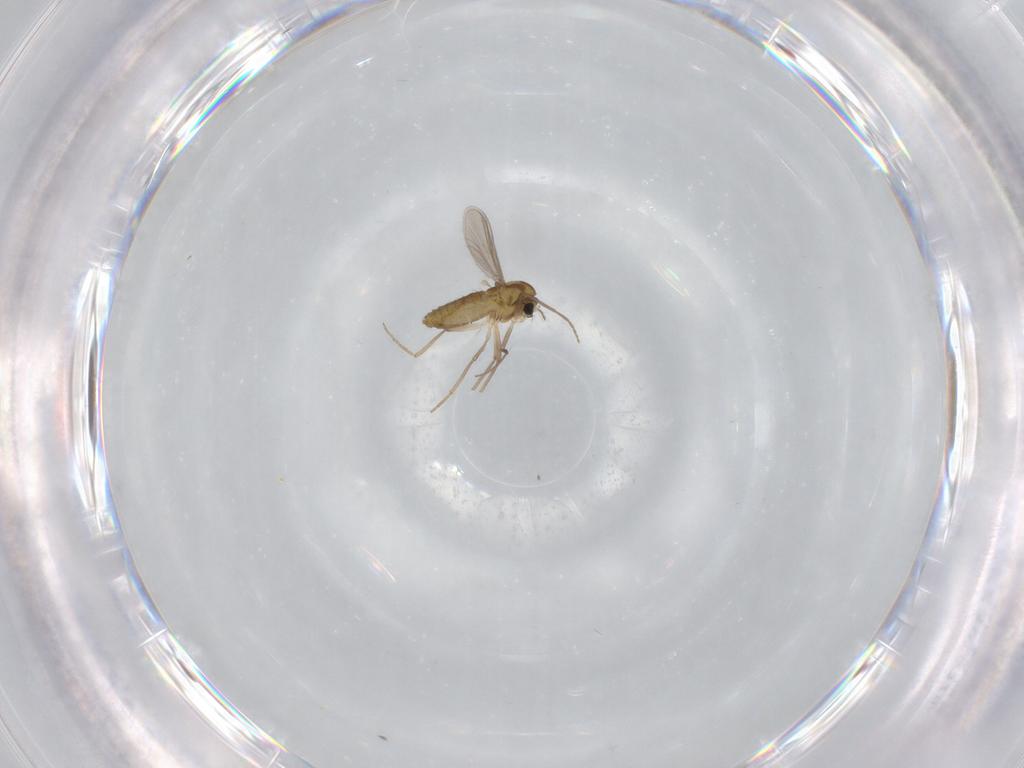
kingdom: Animalia
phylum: Arthropoda
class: Insecta
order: Diptera
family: Chironomidae
